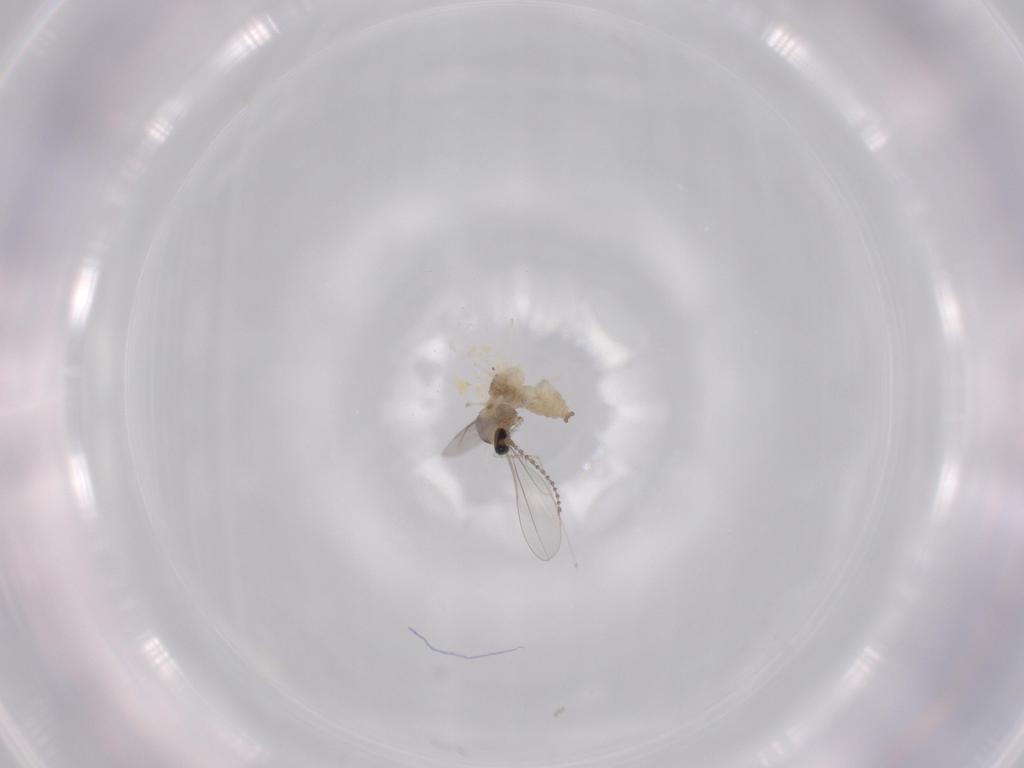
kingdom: Animalia
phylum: Arthropoda
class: Insecta
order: Diptera
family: Cecidomyiidae
